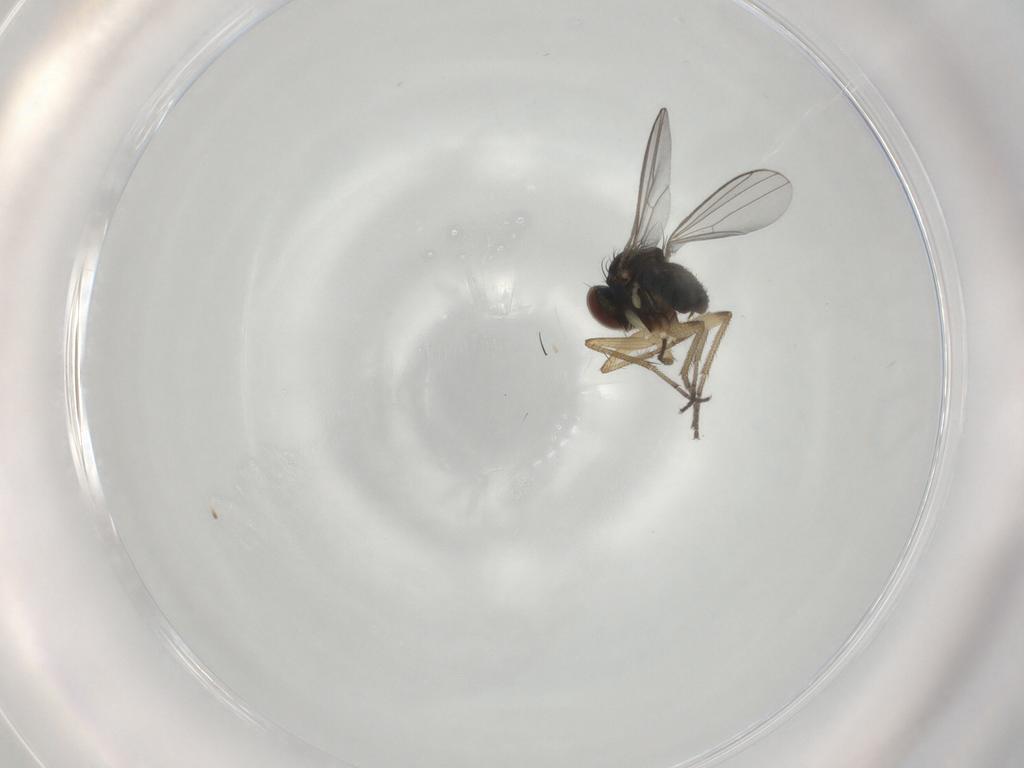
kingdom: Animalia
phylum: Arthropoda
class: Insecta
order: Diptera
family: Dolichopodidae
